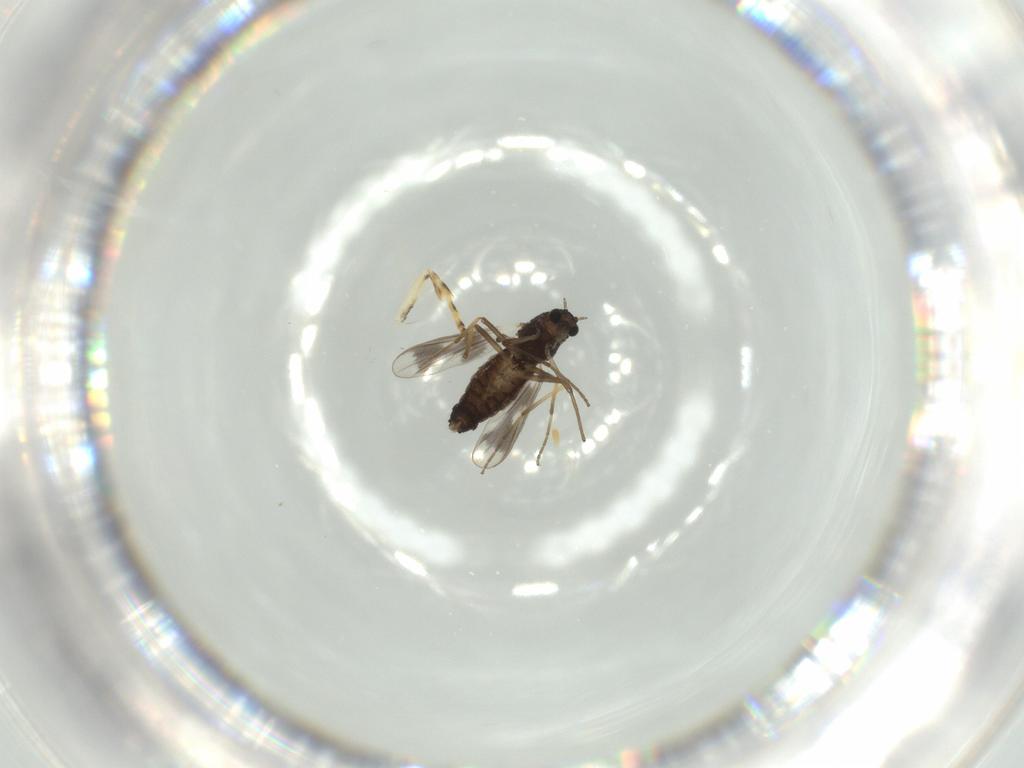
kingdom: Animalia
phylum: Arthropoda
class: Insecta
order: Diptera
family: Chironomidae
